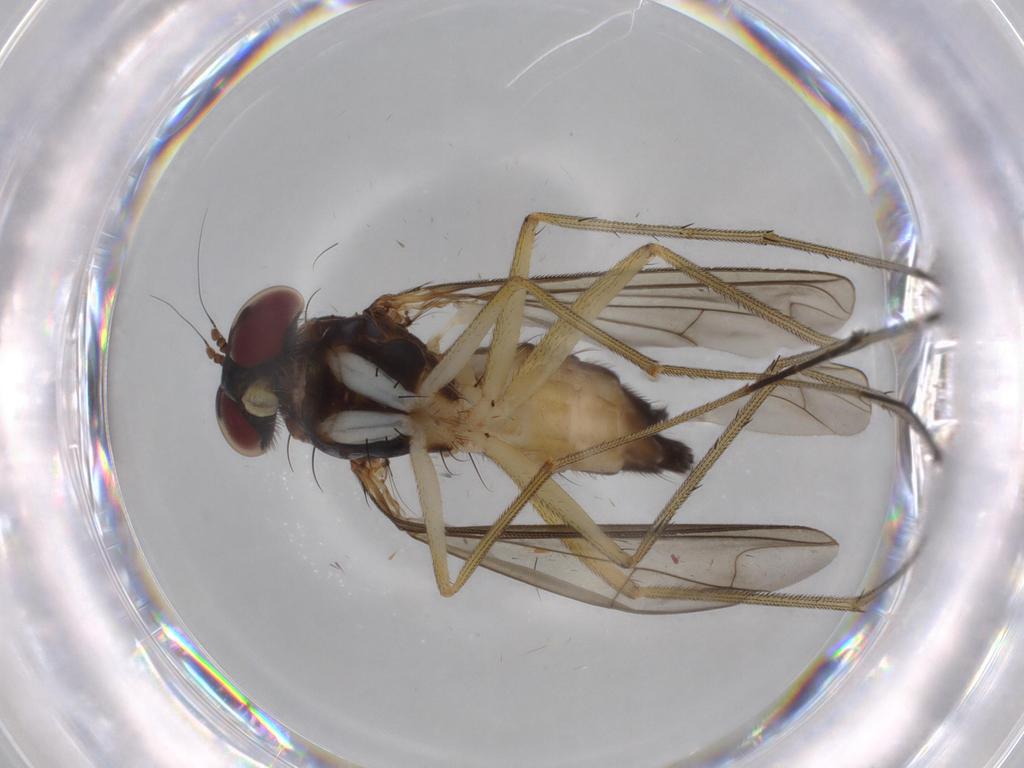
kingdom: Animalia
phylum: Arthropoda
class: Insecta
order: Diptera
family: Dolichopodidae
